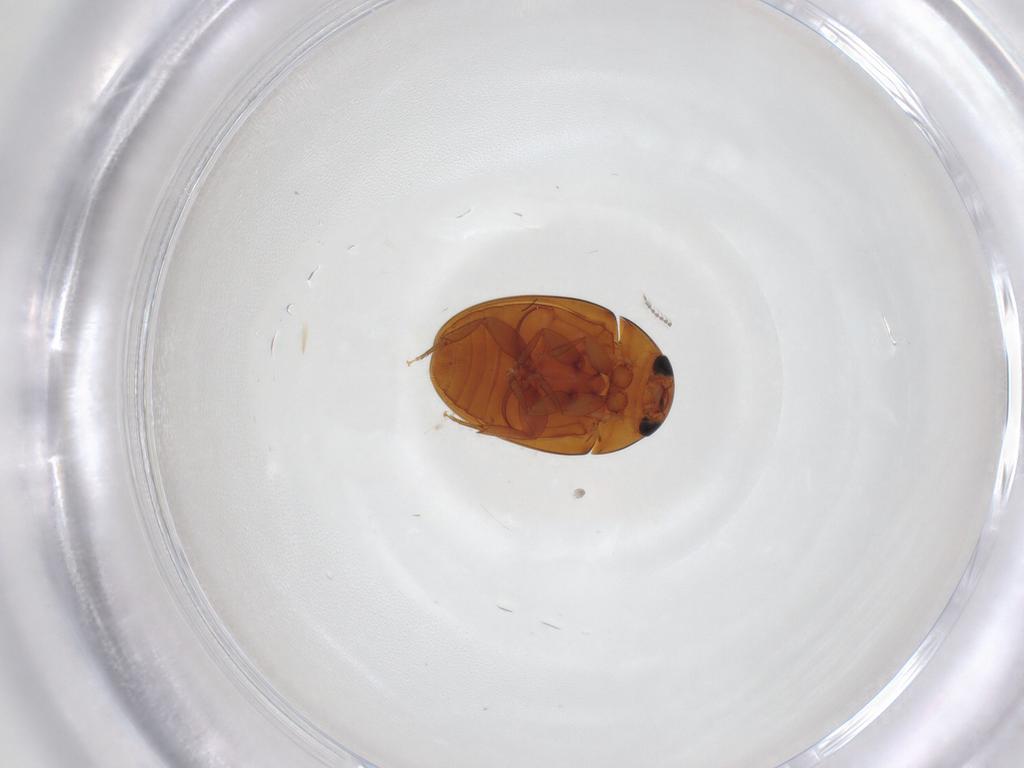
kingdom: Animalia
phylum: Arthropoda
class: Insecta
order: Coleoptera
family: Phalacridae
